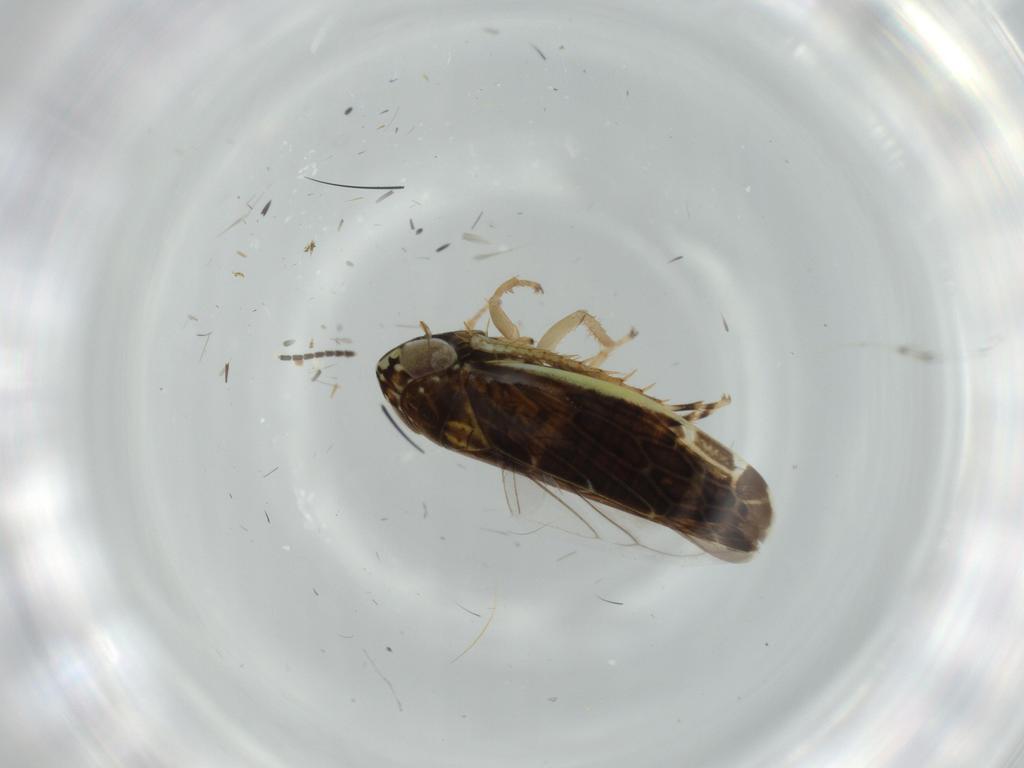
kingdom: Animalia
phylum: Arthropoda
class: Insecta
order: Hemiptera
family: Cicadellidae
